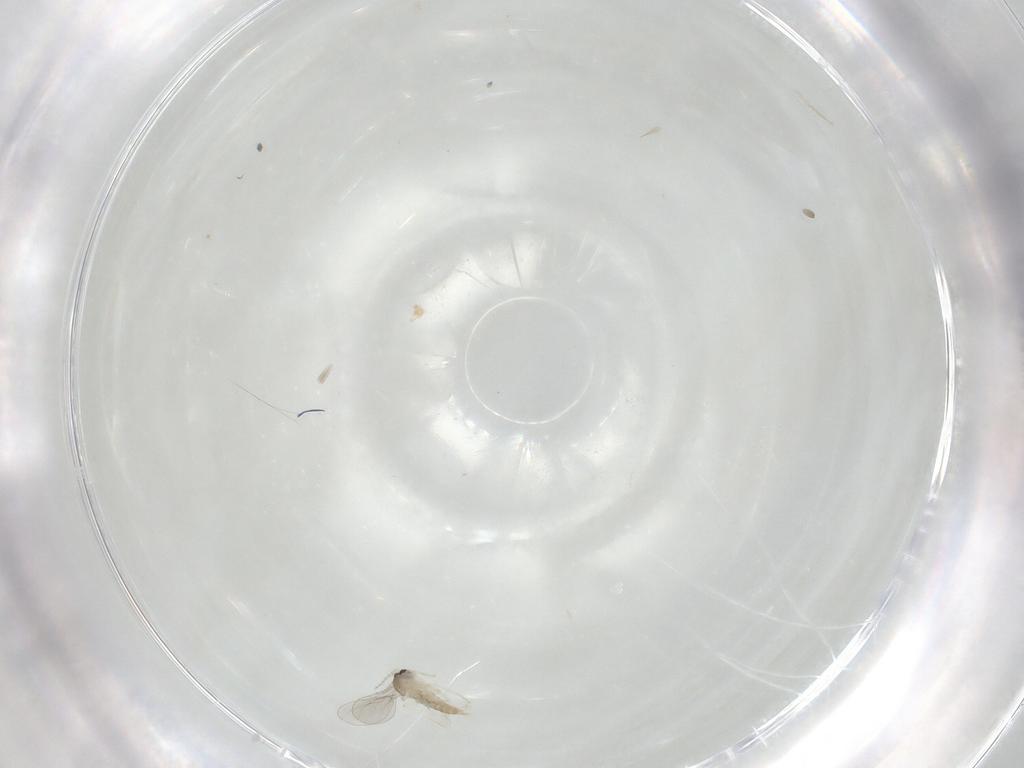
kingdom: Animalia
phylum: Arthropoda
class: Insecta
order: Diptera
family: Cecidomyiidae
